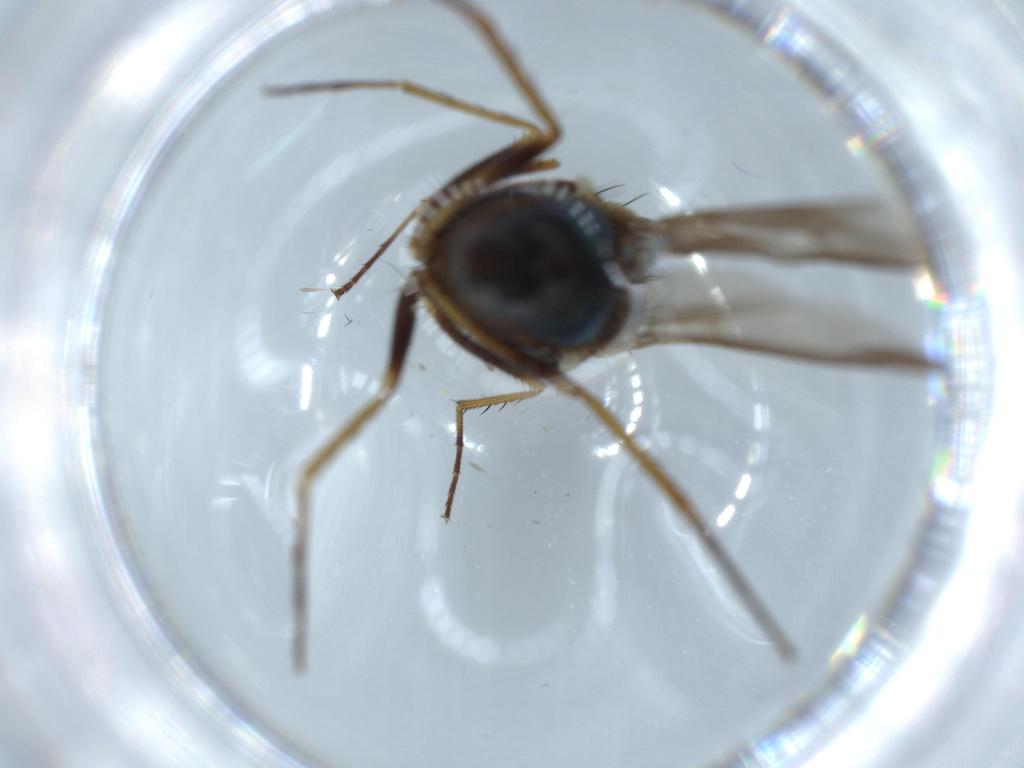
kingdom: Animalia
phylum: Arthropoda
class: Insecta
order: Diptera
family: Dolichopodidae
